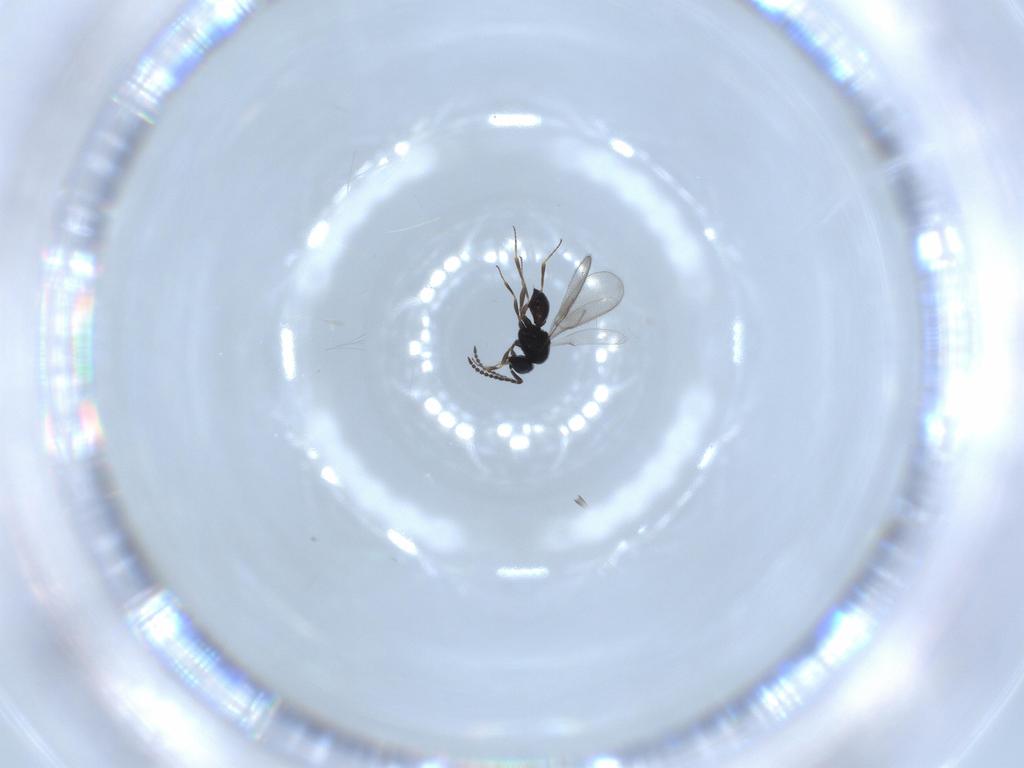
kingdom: Animalia
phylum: Arthropoda
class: Insecta
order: Hymenoptera
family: Scelionidae
